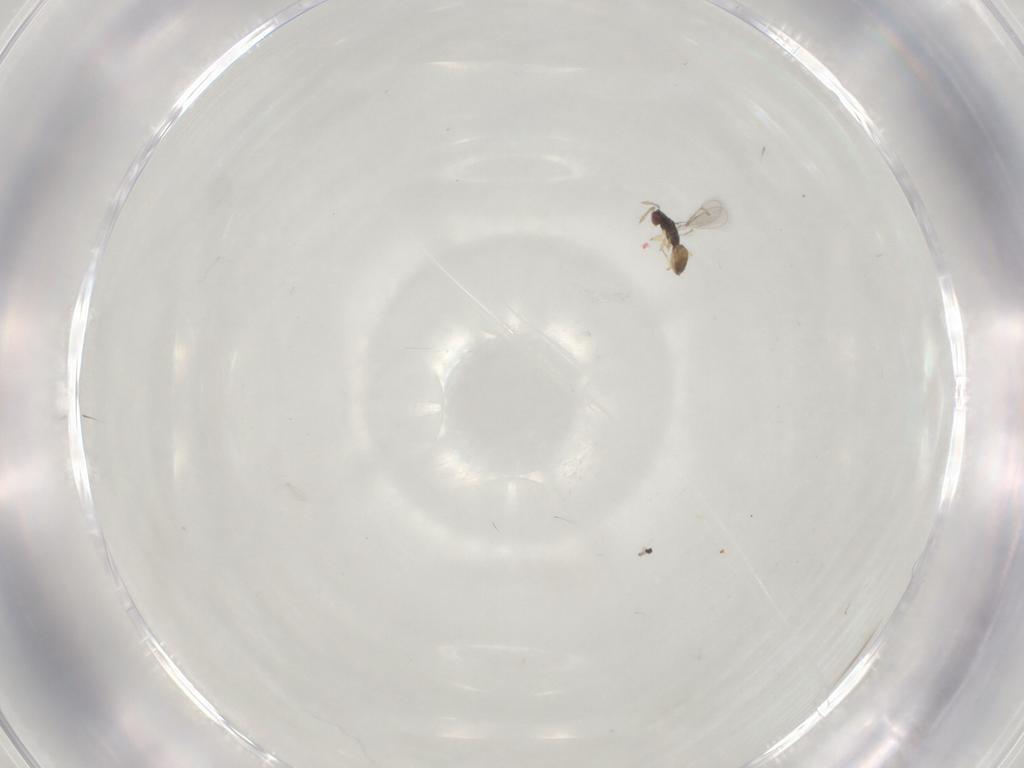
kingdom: Animalia
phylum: Arthropoda
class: Insecta
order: Hymenoptera
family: Eulophidae
